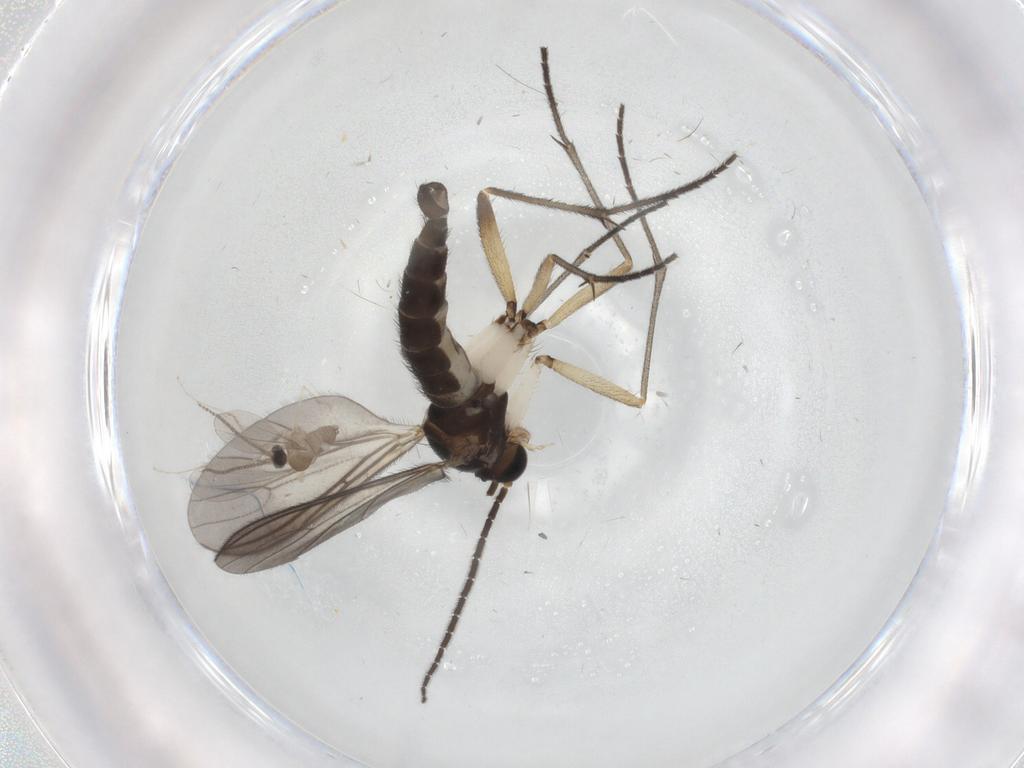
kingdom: Animalia
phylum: Arthropoda
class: Insecta
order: Diptera
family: Cecidomyiidae
